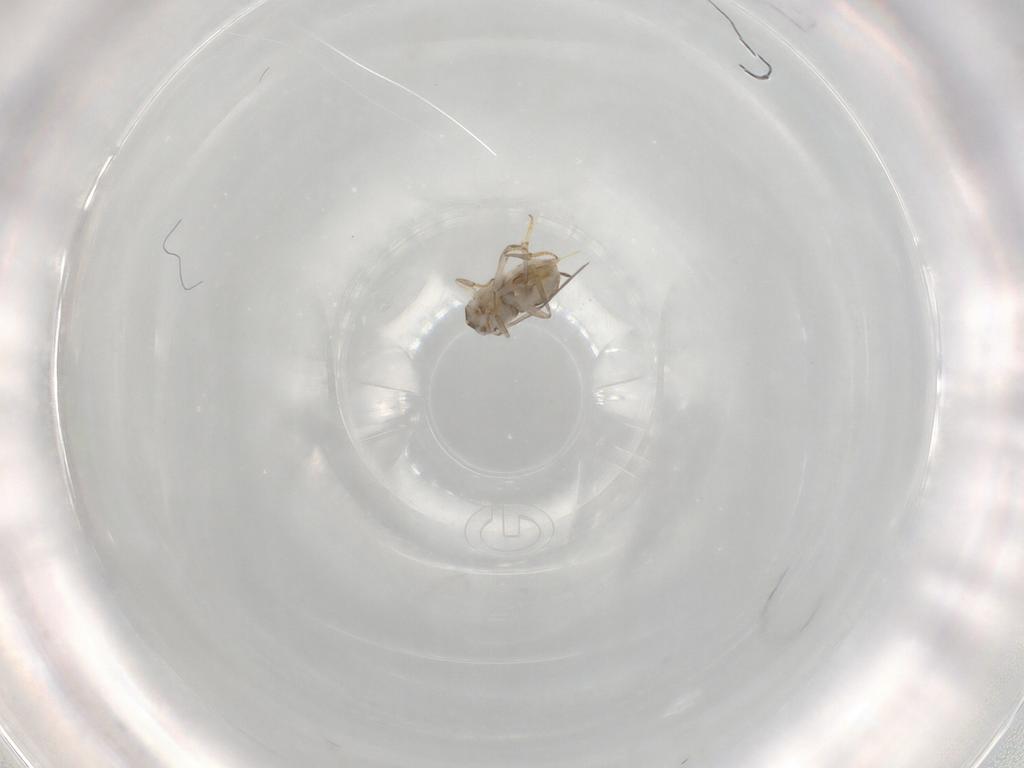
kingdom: Animalia
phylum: Arthropoda
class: Insecta
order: Hymenoptera
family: Encyrtidae
